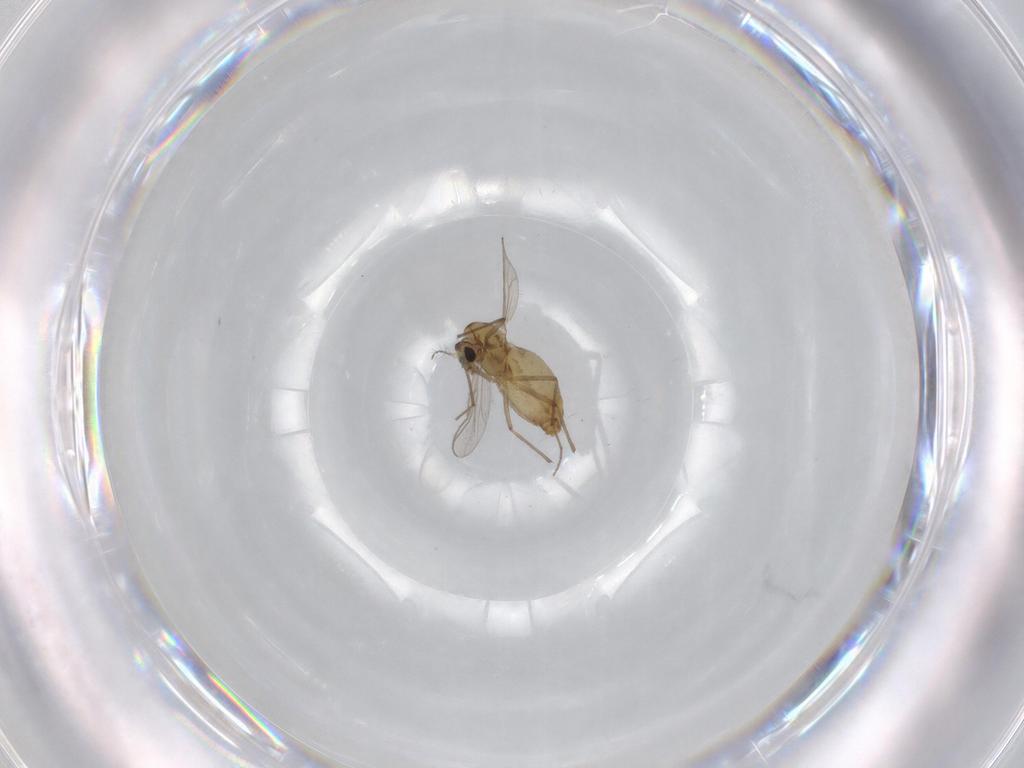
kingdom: Animalia
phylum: Arthropoda
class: Insecta
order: Diptera
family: Chironomidae
